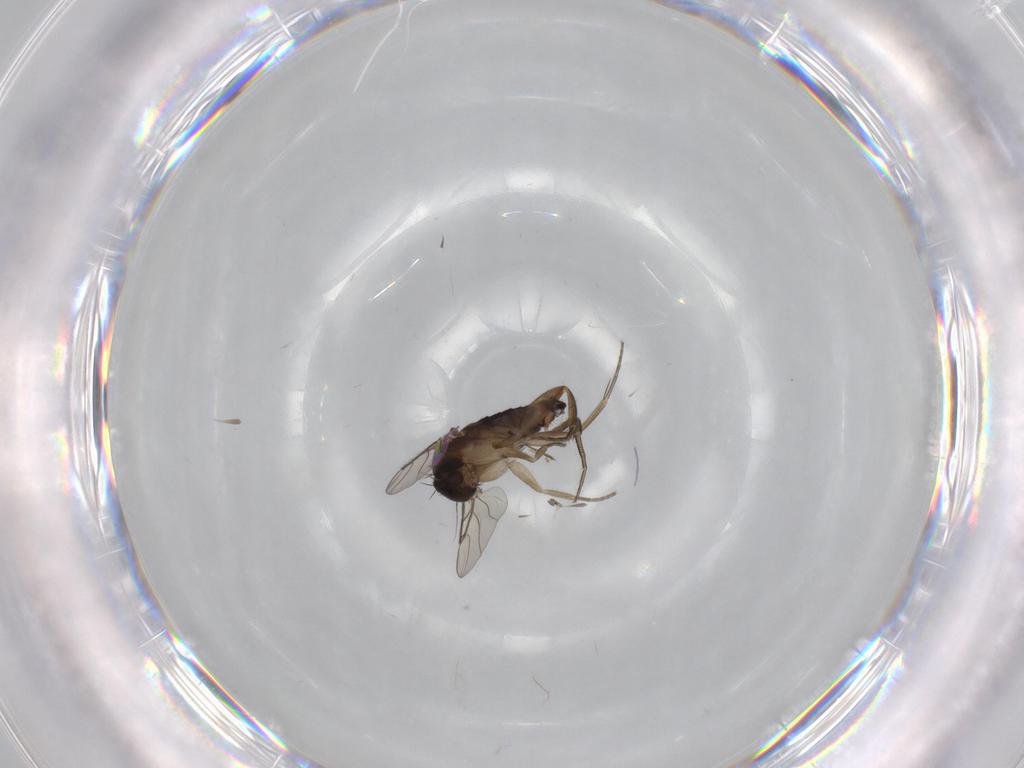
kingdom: Animalia
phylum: Arthropoda
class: Insecta
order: Diptera
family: Phoridae
